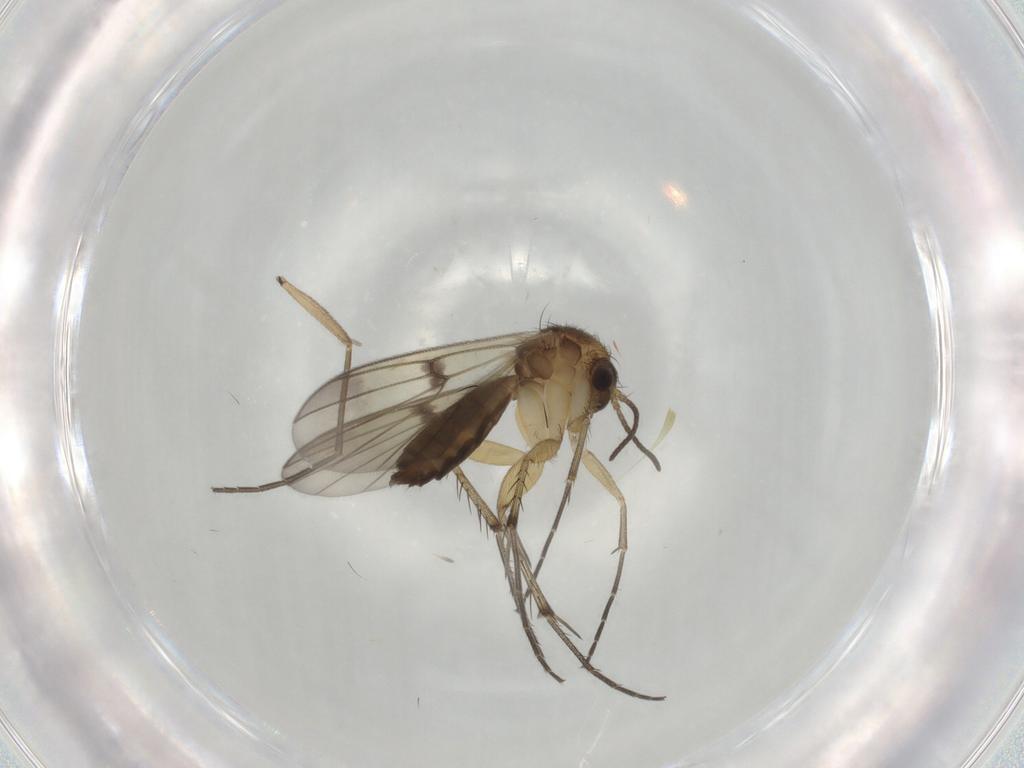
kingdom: Animalia
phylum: Arthropoda
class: Insecta
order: Diptera
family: Mycetophilidae
